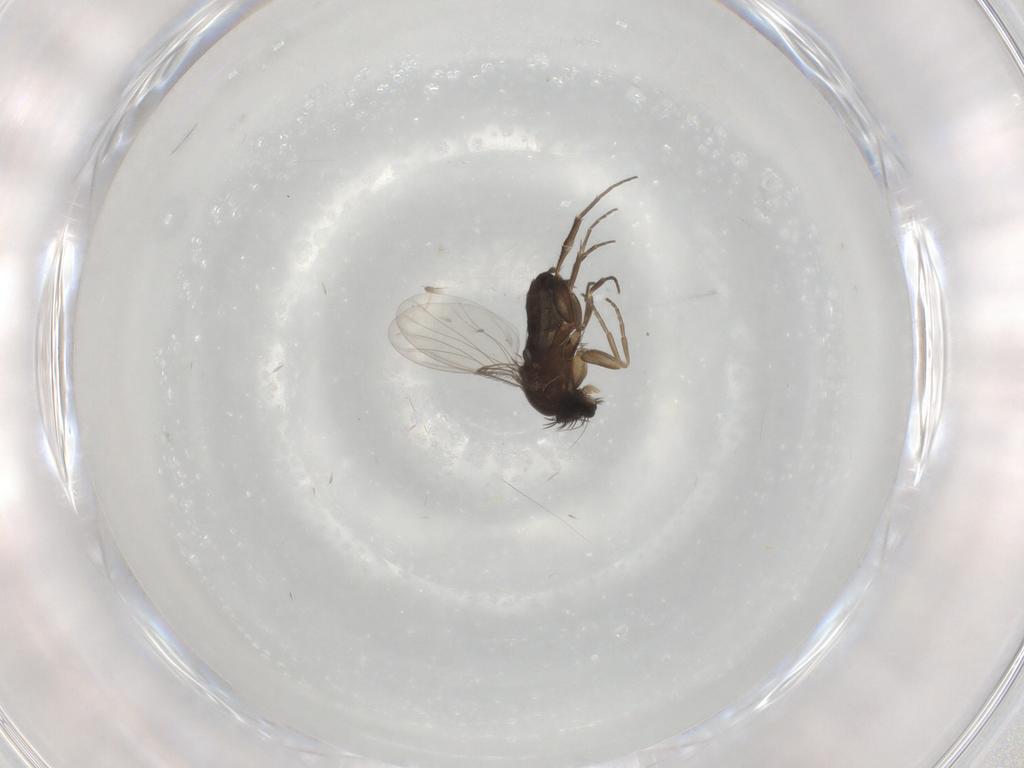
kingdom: Animalia
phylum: Arthropoda
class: Insecta
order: Diptera
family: Phoridae
